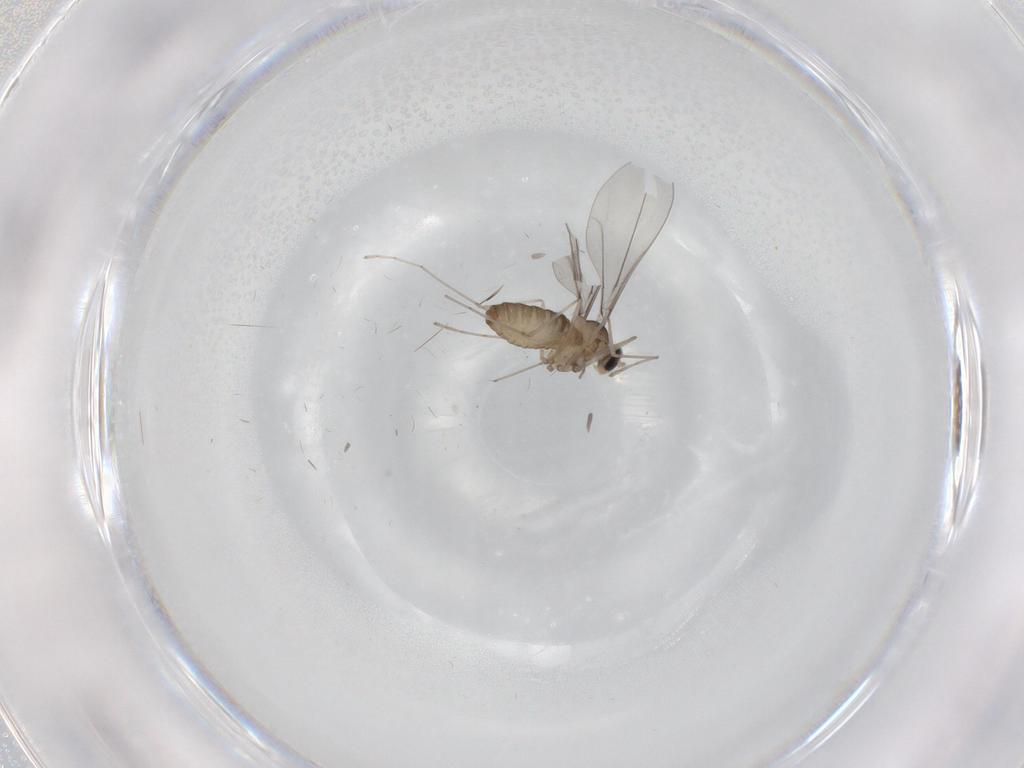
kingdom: Animalia
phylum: Arthropoda
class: Insecta
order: Diptera
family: Cecidomyiidae
